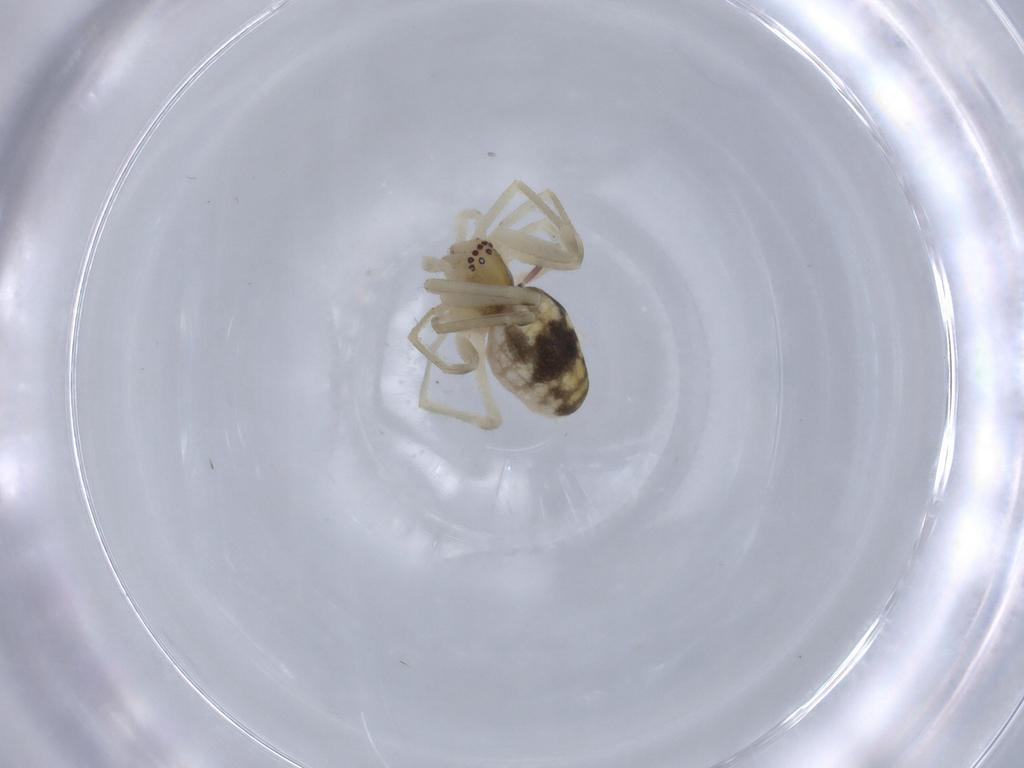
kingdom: Animalia
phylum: Arthropoda
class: Arachnida
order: Araneae
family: Dictynidae
